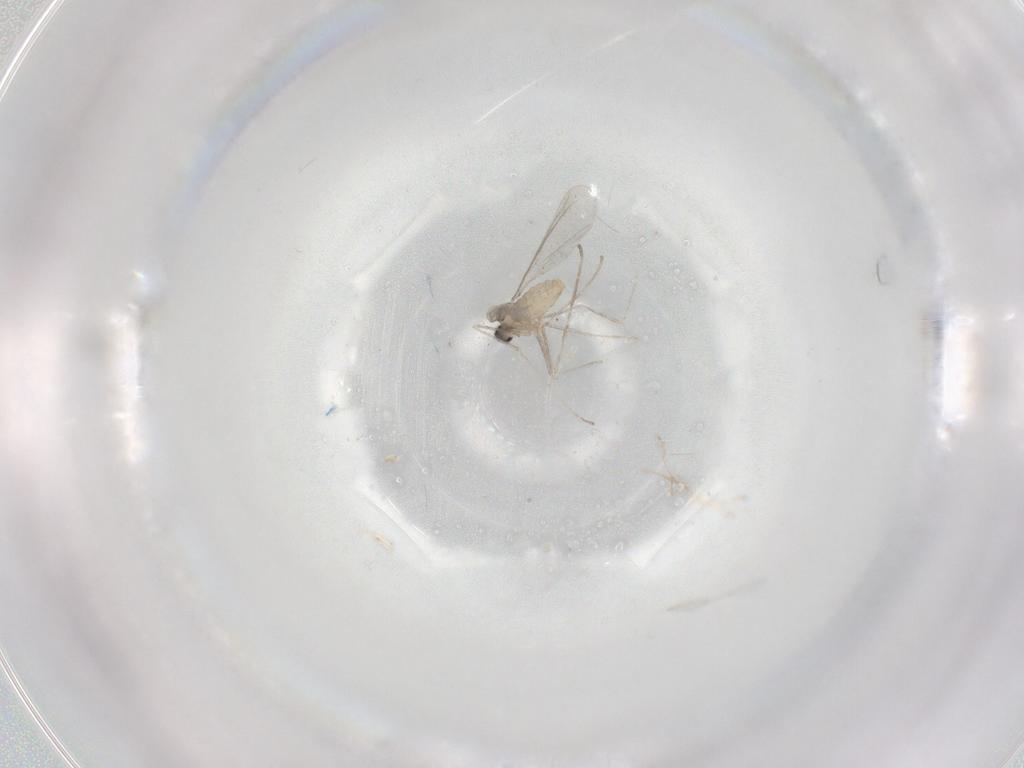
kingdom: Animalia
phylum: Arthropoda
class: Insecta
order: Diptera
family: Cecidomyiidae
